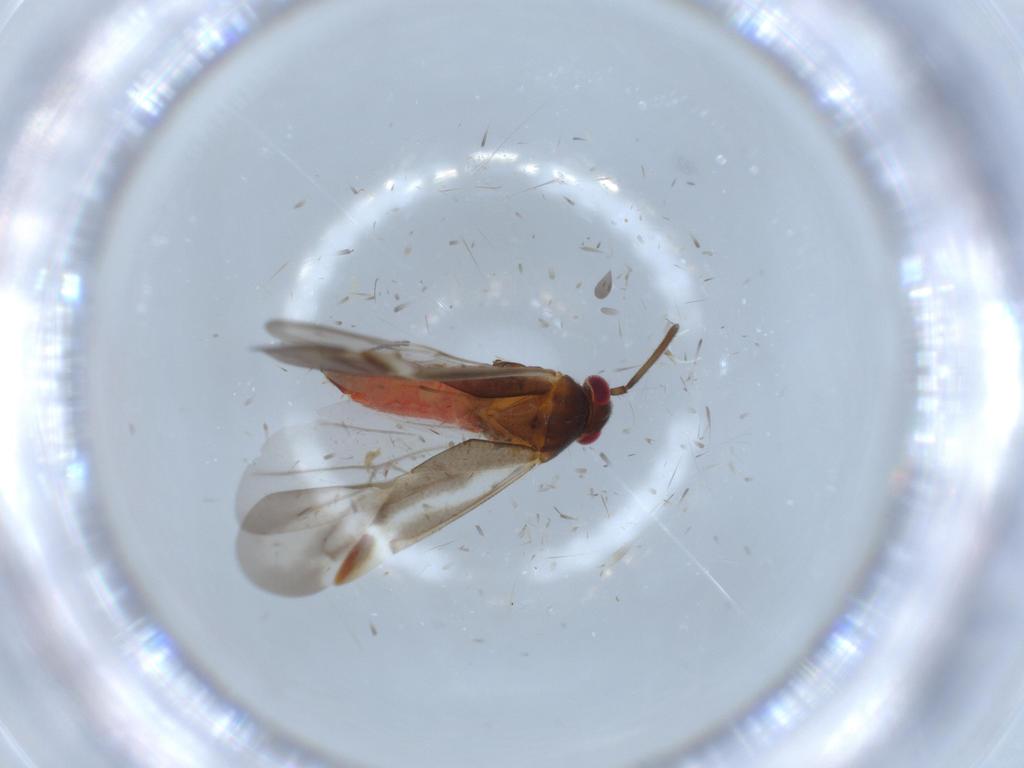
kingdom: Animalia
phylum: Arthropoda
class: Insecta
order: Hemiptera
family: Miridae
